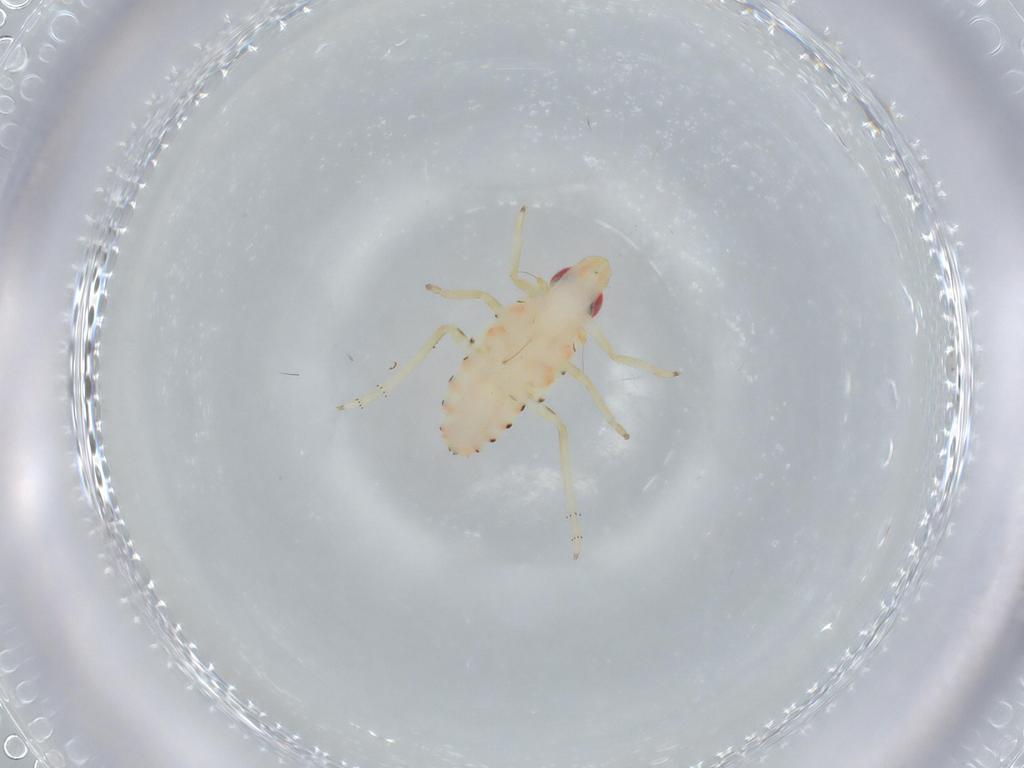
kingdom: Animalia
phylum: Arthropoda
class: Insecta
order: Hemiptera
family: Tropiduchidae
